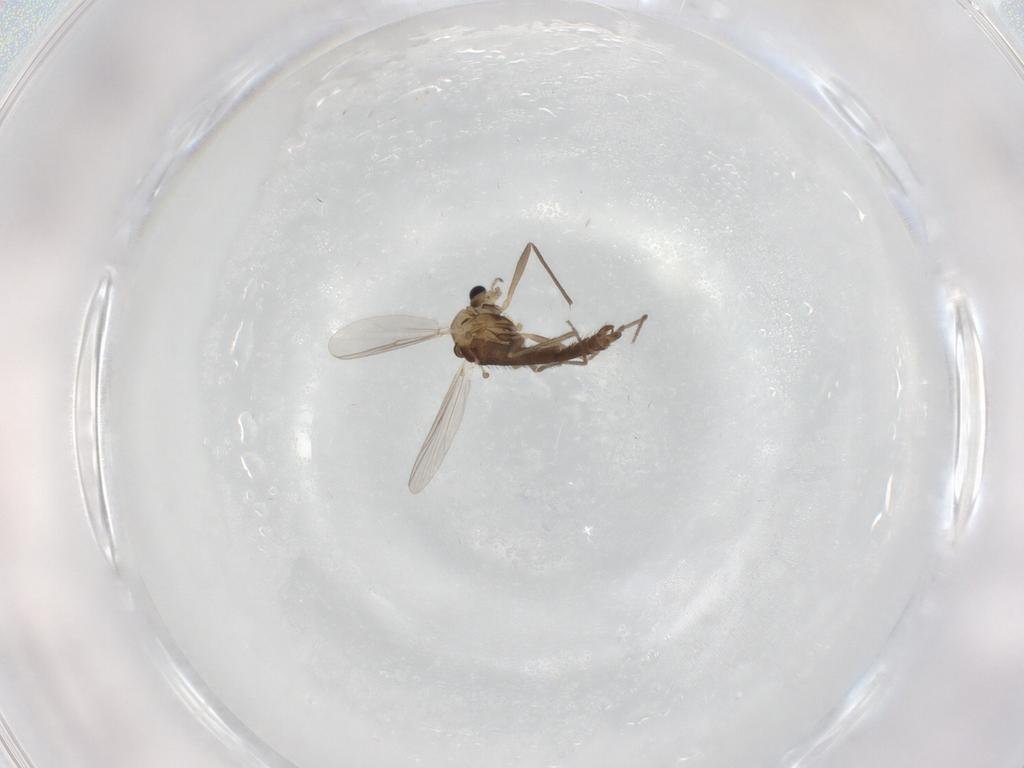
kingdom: Animalia
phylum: Arthropoda
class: Insecta
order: Diptera
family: Chironomidae
